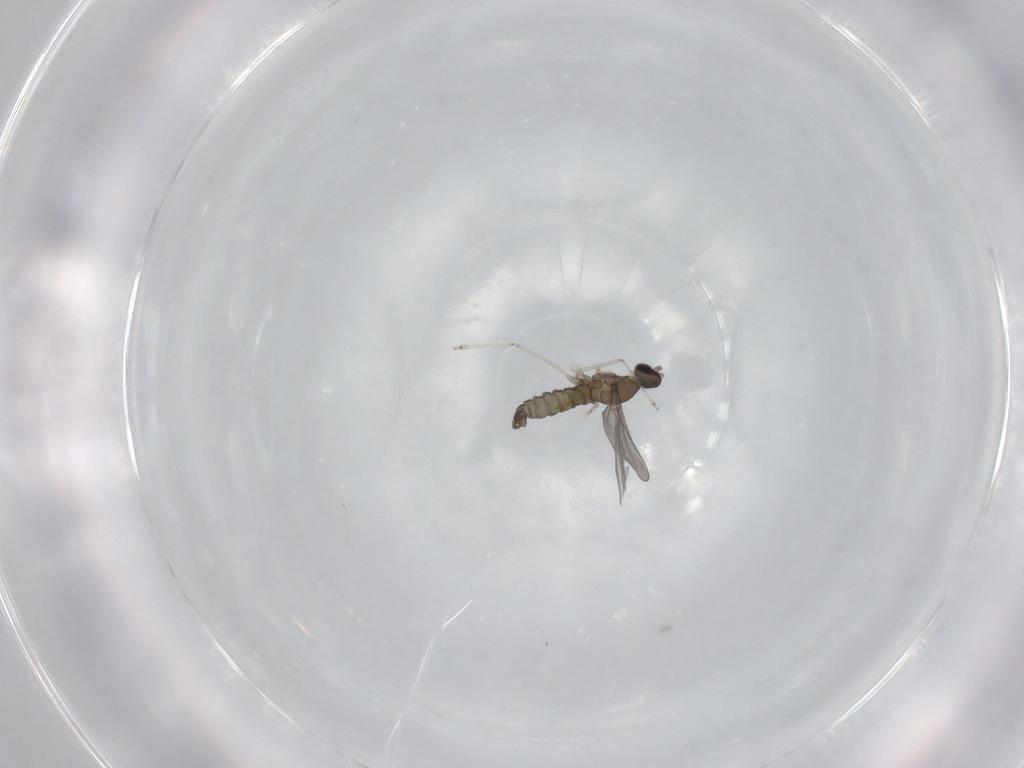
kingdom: Animalia
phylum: Arthropoda
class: Insecta
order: Diptera
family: Cecidomyiidae
